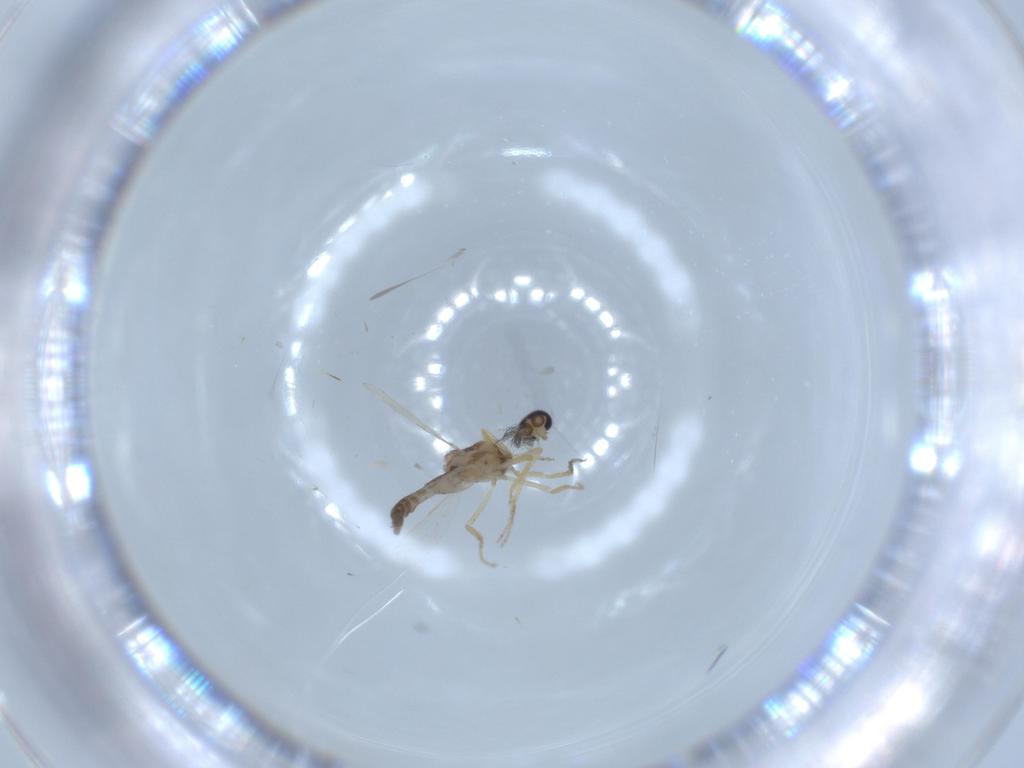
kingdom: Animalia
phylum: Arthropoda
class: Insecta
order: Diptera
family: Ceratopogonidae
